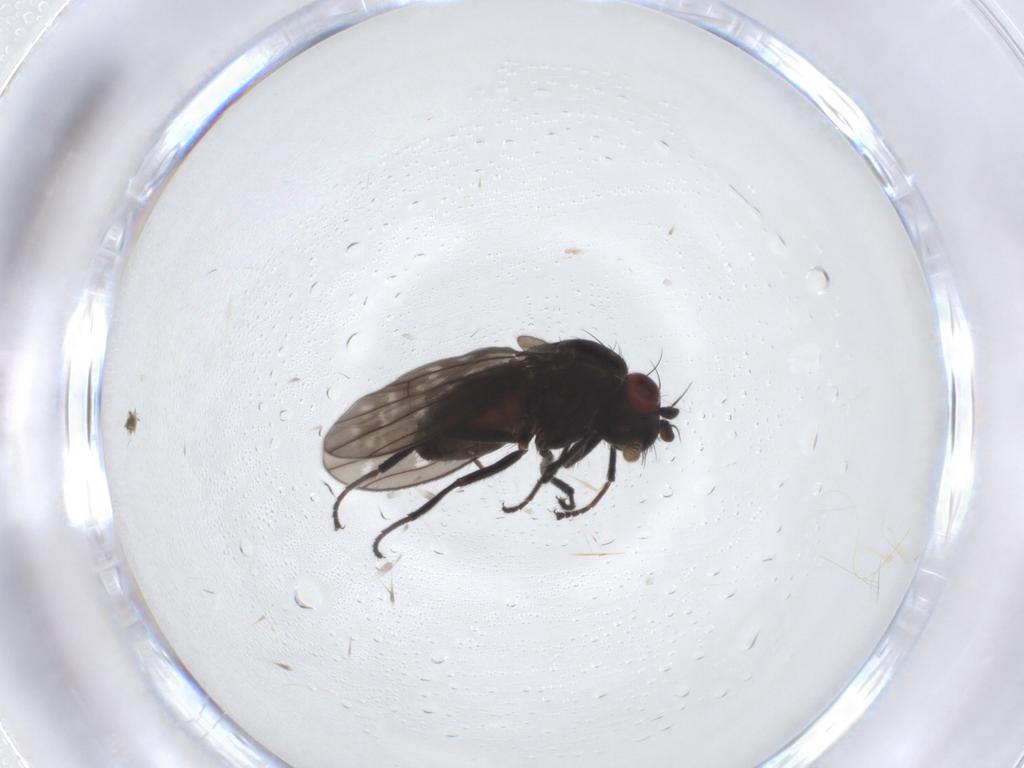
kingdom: Animalia
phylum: Arthropoda
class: Insecta
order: Diptera
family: Ephydridae
